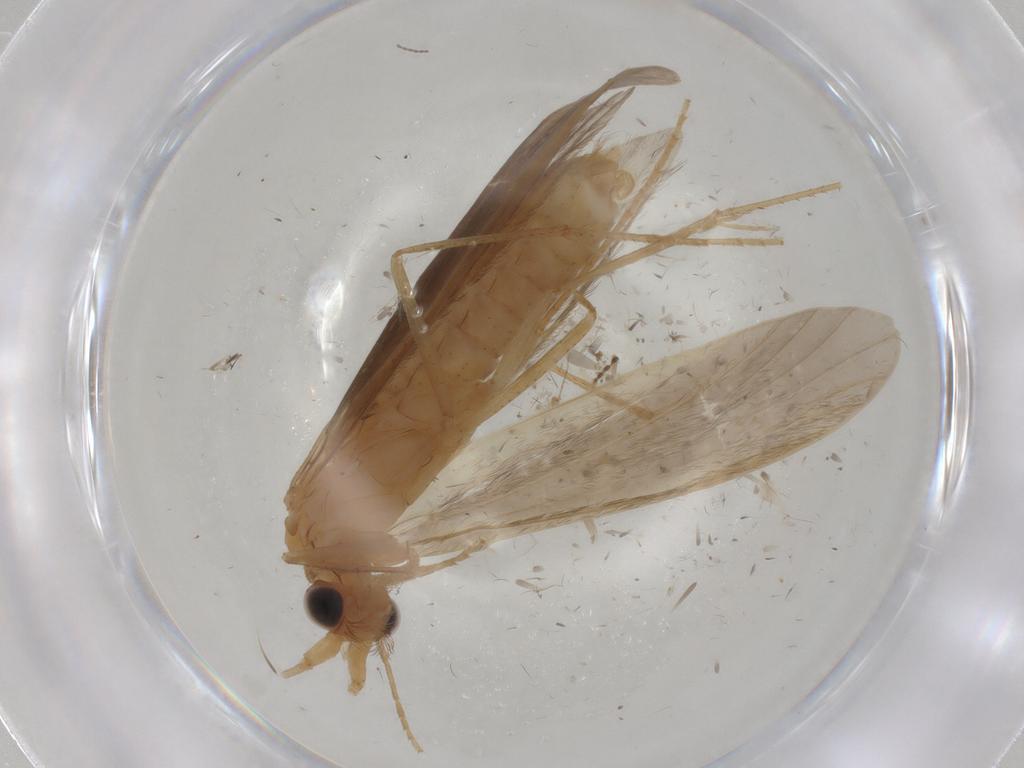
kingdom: Animalia
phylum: Arthropoda
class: Insecta
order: Trichoptera
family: Leptoceridae
